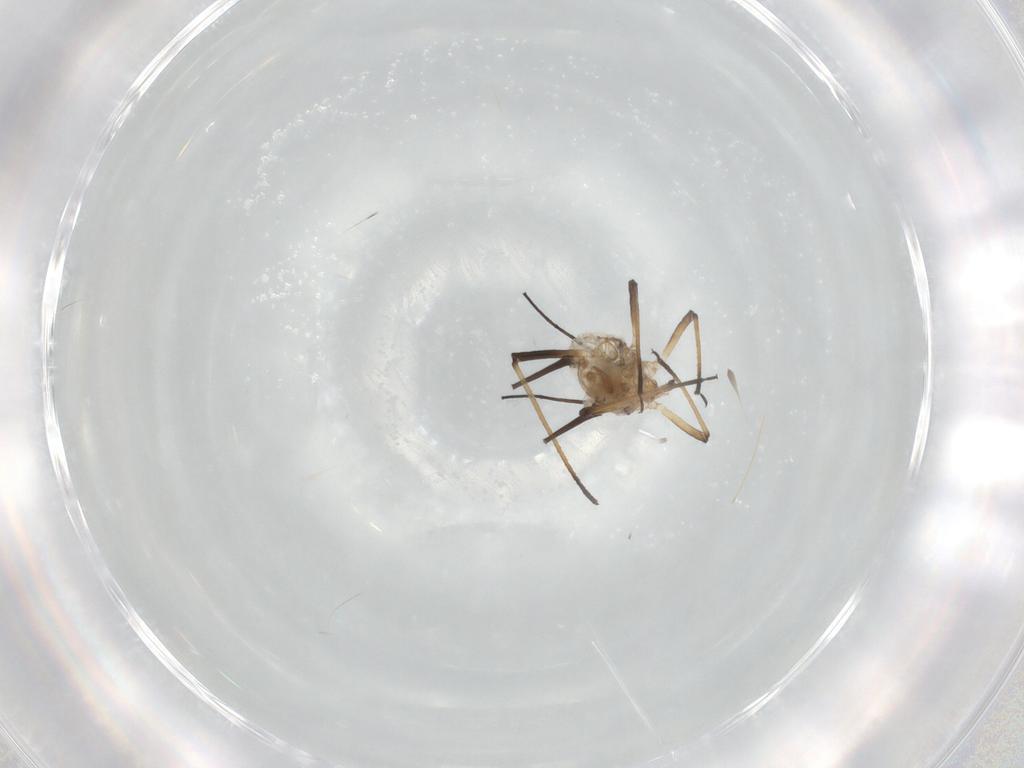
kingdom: Animalia
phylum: Arthropoda
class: Insecta
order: Hemiptera
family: Aphididae
